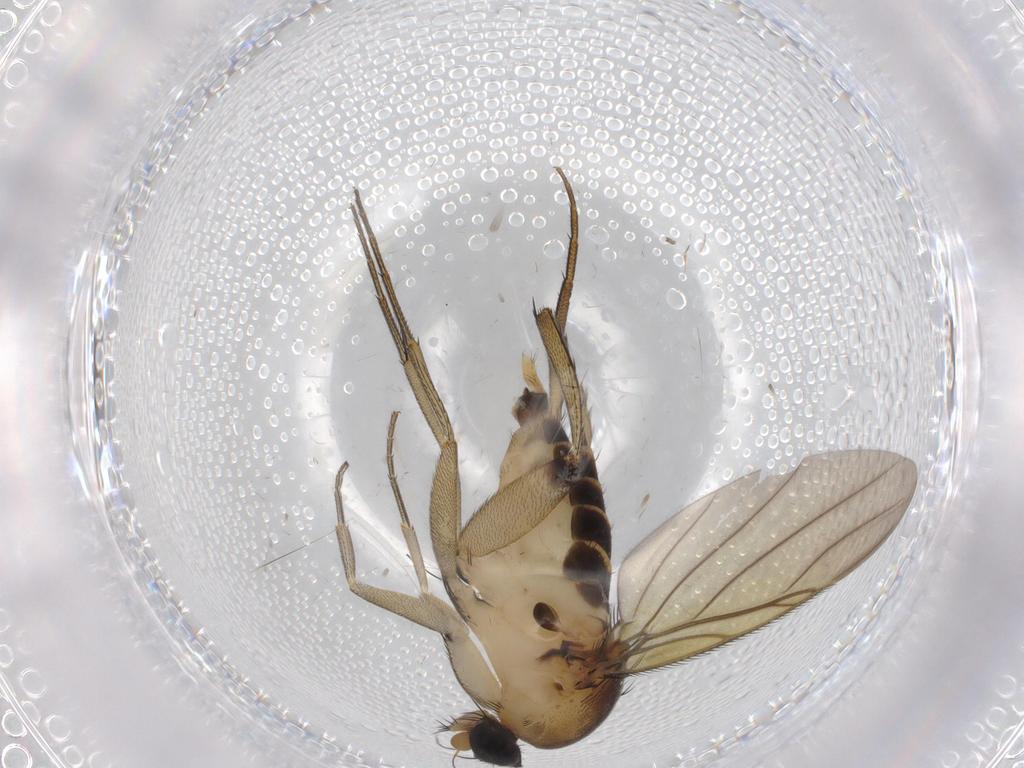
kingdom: Animalia
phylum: Arthropoda
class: Insecta
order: Diptera
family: Phoridae
